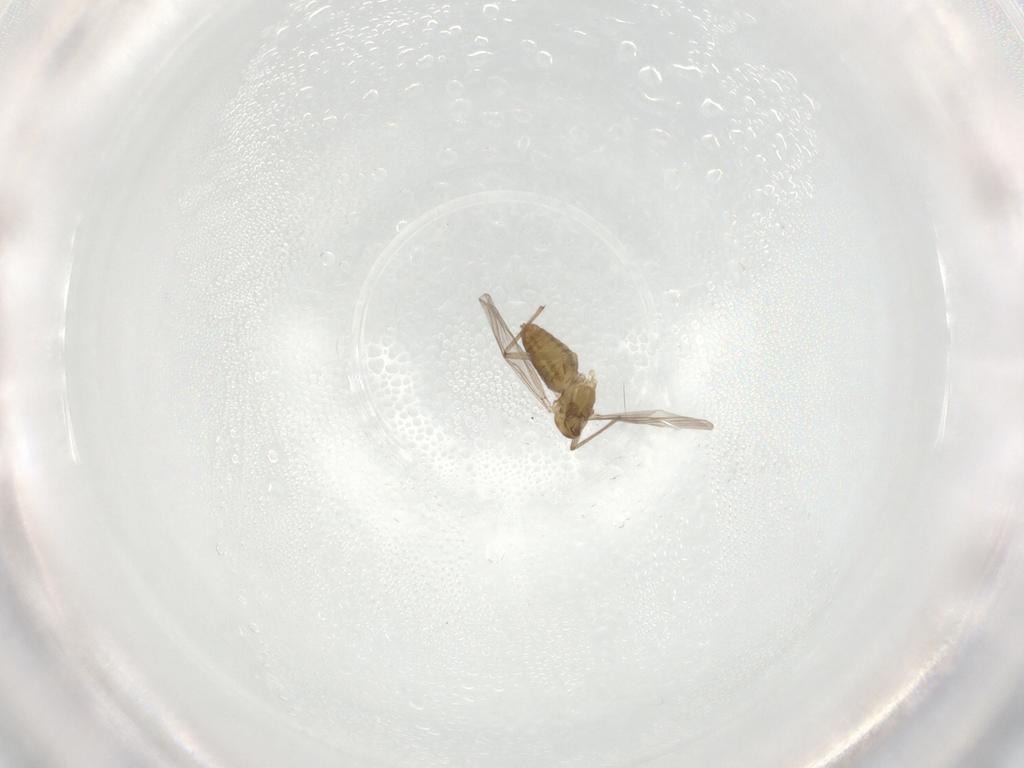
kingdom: Animalia
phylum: Arthropoda
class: Insecta
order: Diptera
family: Chironomidae
